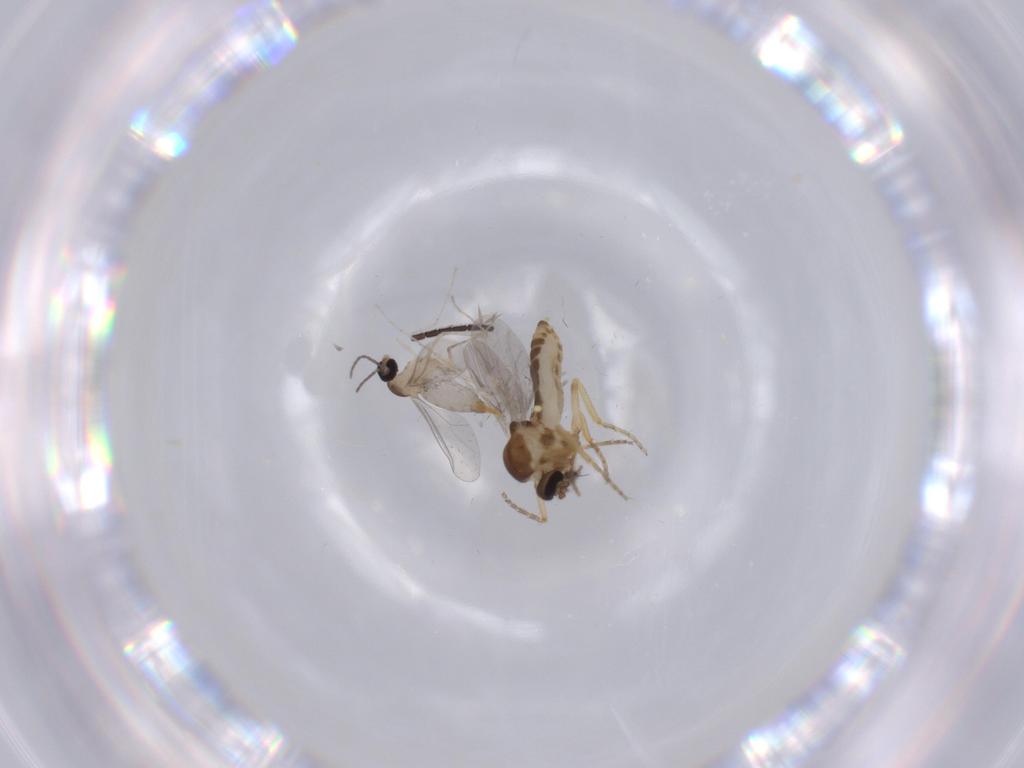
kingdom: Animalia
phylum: Arthropoda
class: Insecta
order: Diptera
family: Ceratopogonidae
